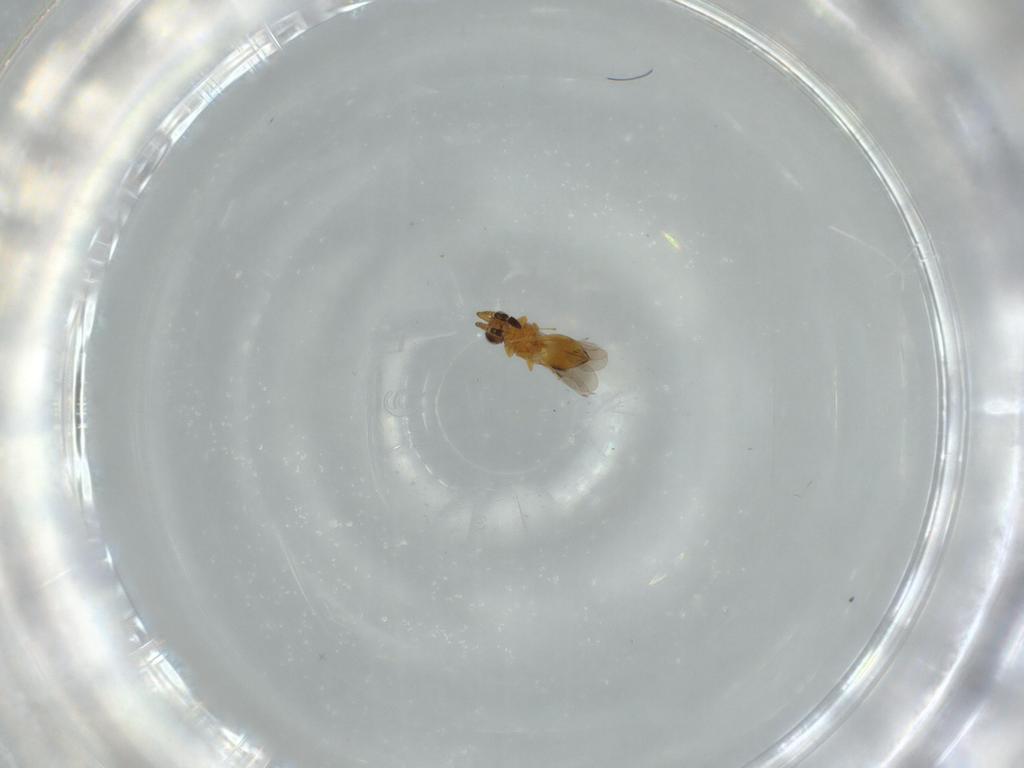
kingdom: Animalia
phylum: Arthropoda
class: Insecta
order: Hymenoptera
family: Ceraphronidae
